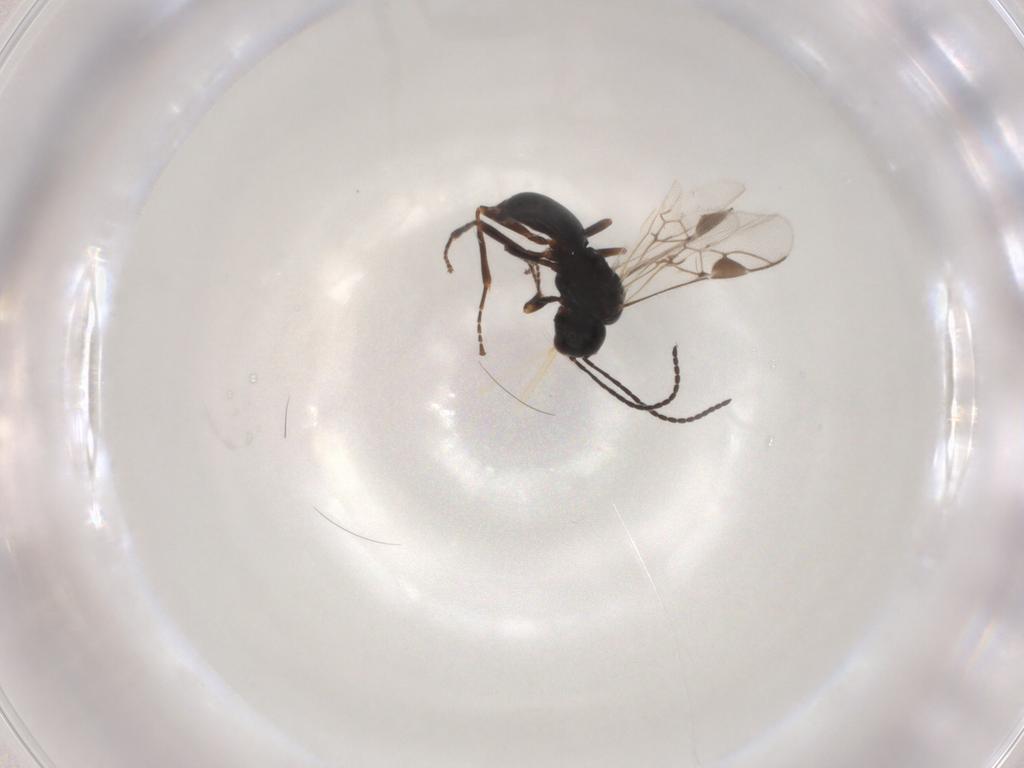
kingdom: Animalia
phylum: Arthropoda
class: Insecta
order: Hymenoptera
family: Braconidae
